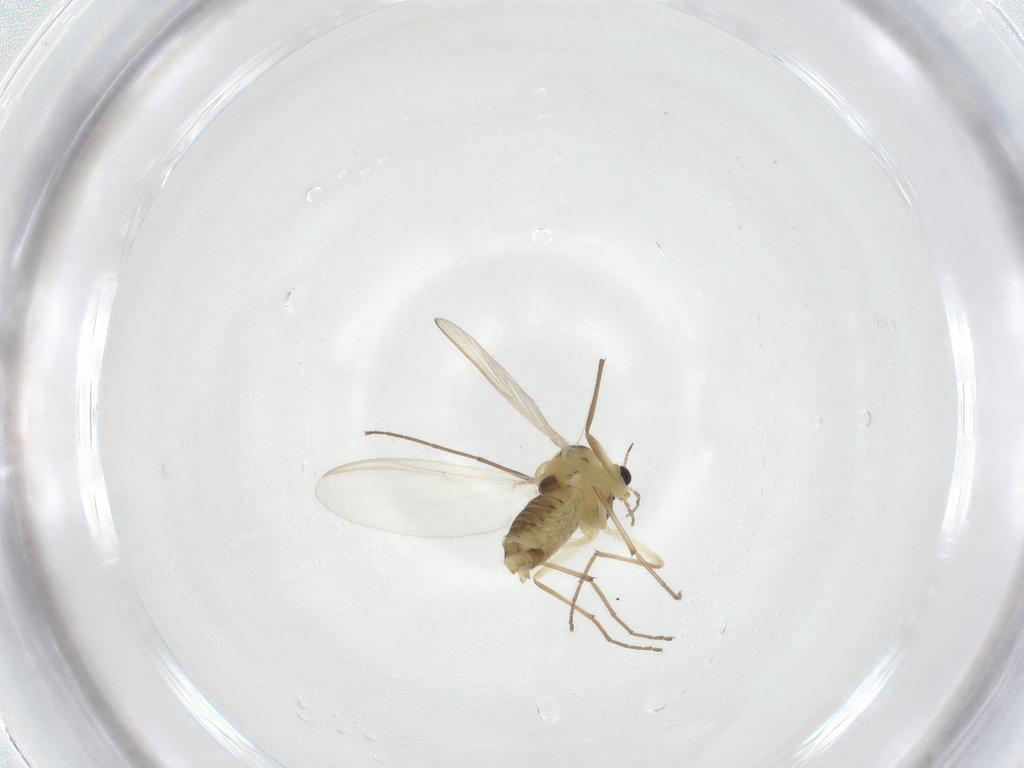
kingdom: Animalia
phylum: Arthropoda
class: Insecta
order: Diptera
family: Chironomidae
